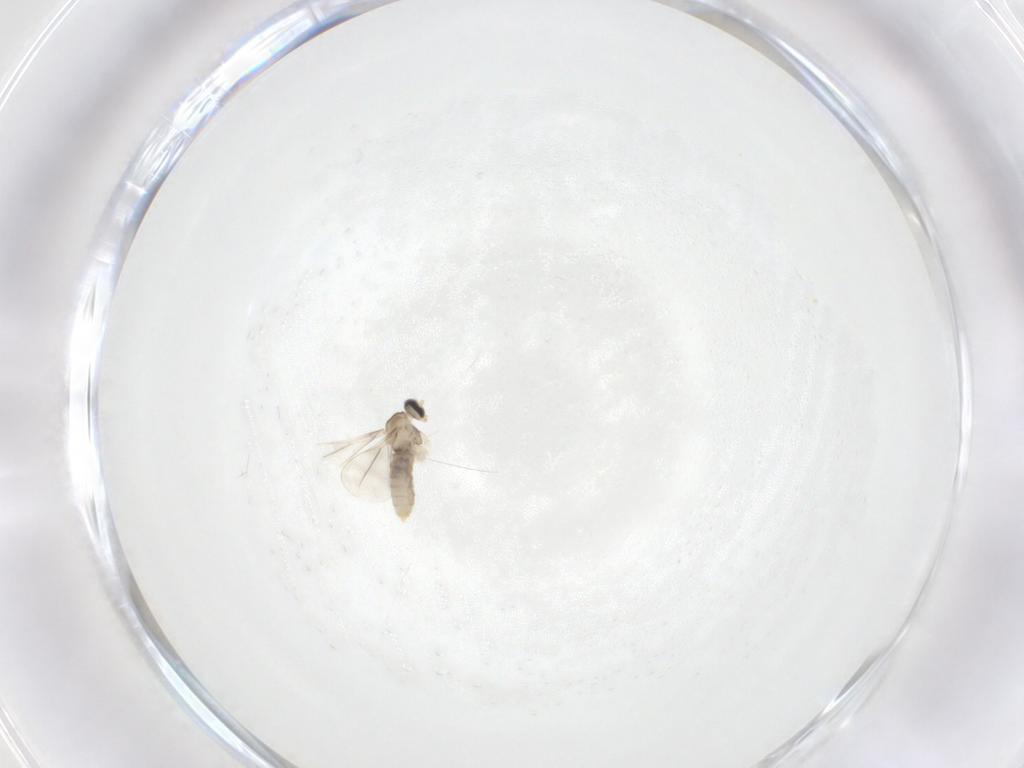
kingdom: Animalia
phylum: Arthropoda
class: Insecta
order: Diptera
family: Cecidomyiidae
